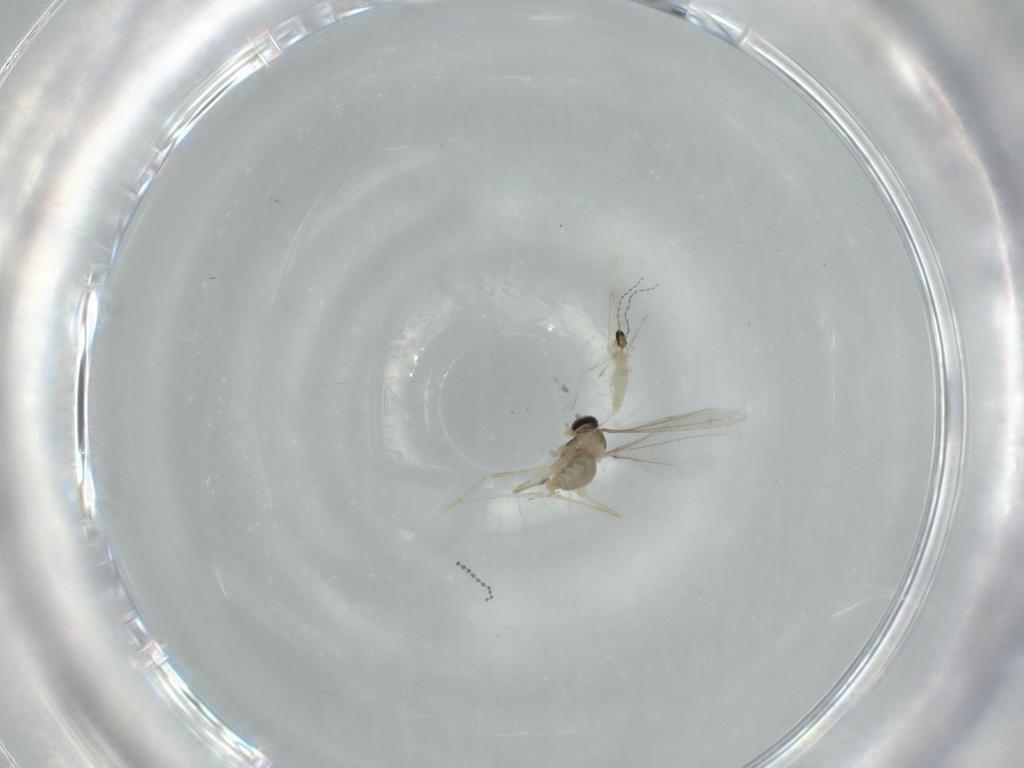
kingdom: Animalia
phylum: Arthropoda
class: Insecta
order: Diptera
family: Cecidomyiidae
